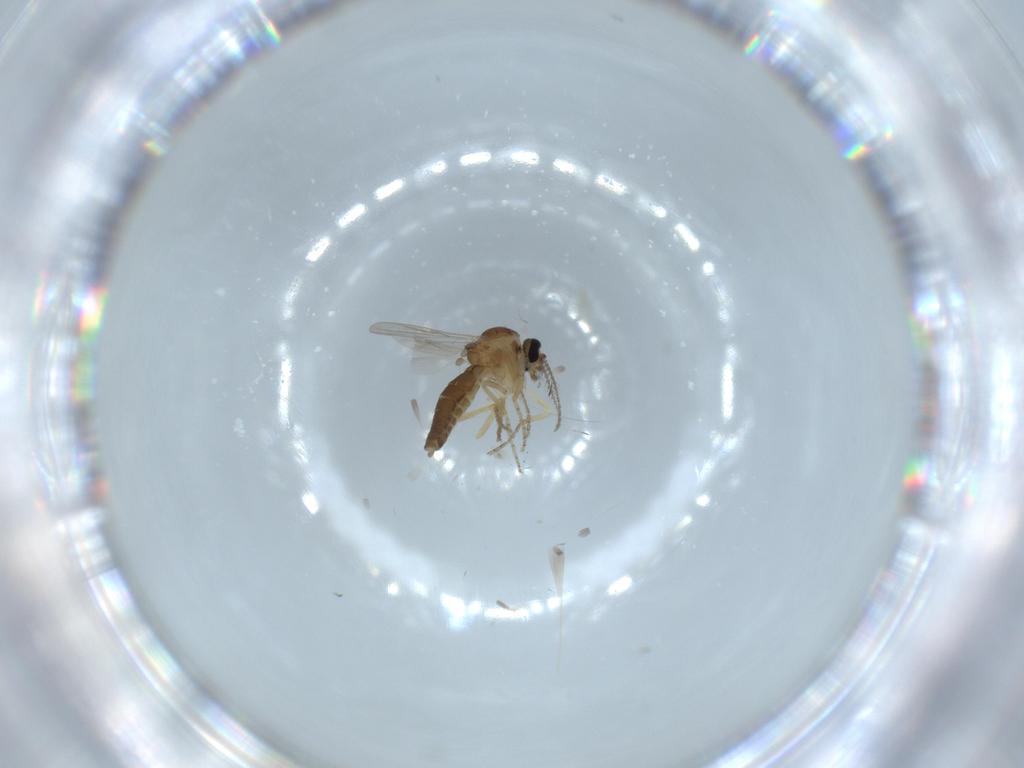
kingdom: Animalia
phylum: Arthropoda
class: Insecta
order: Diptera
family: Ceratopogonidae
